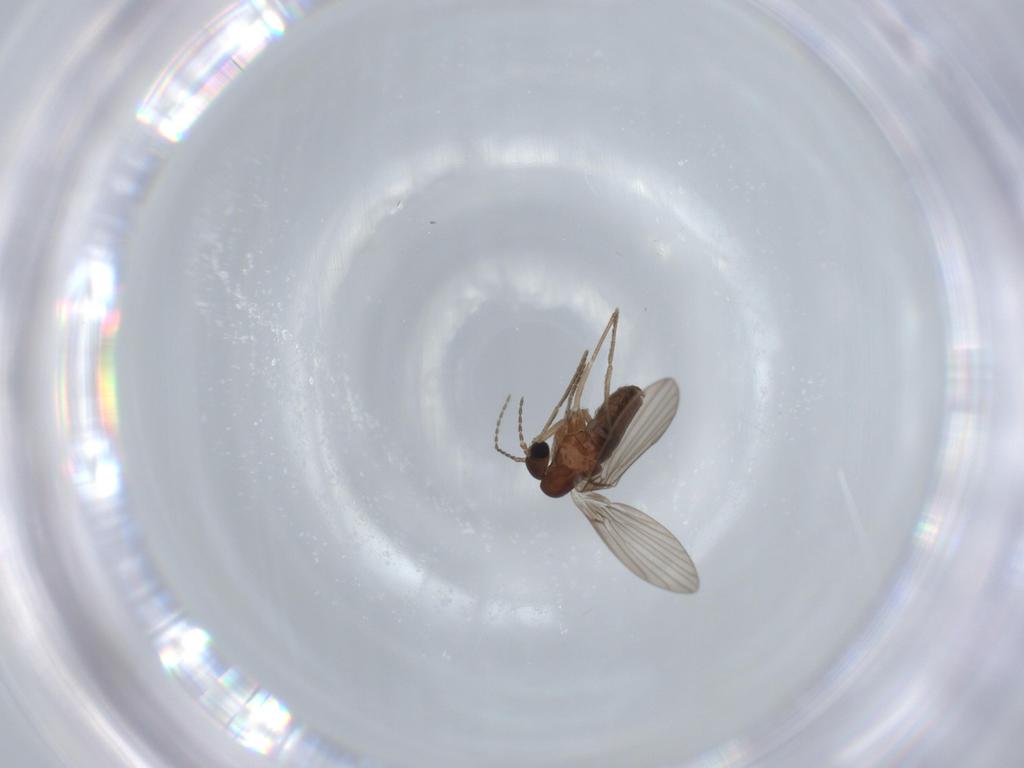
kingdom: Animalia
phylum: Arthropoda
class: Insecta
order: Diptera
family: Psychodidae
